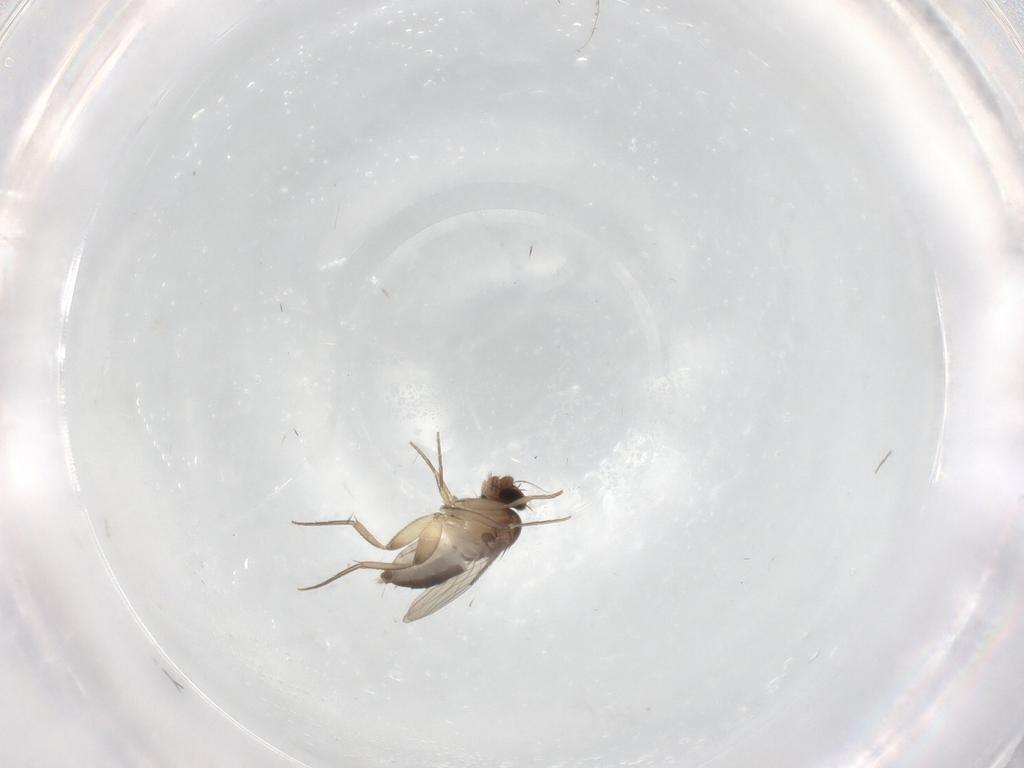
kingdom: Animalia
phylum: Arthropoda
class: Insecta
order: Diptera
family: Phoridae
